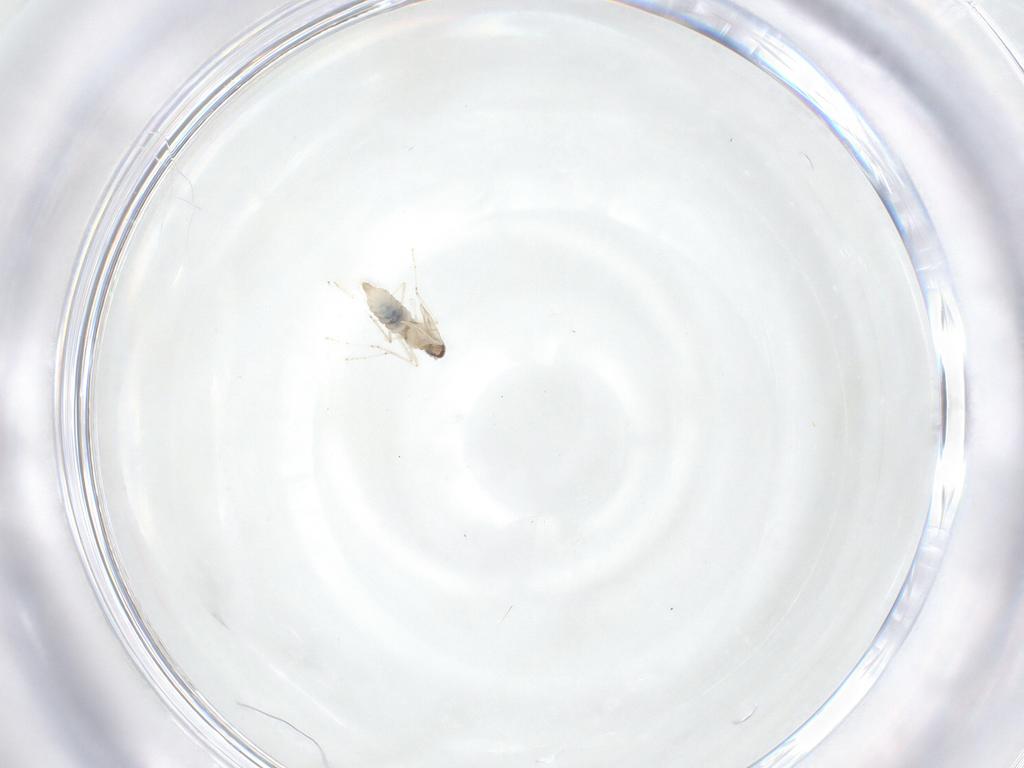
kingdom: Animalia
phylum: Arthropoda
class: Insecta
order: Diptera
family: Cecidomyiidae
